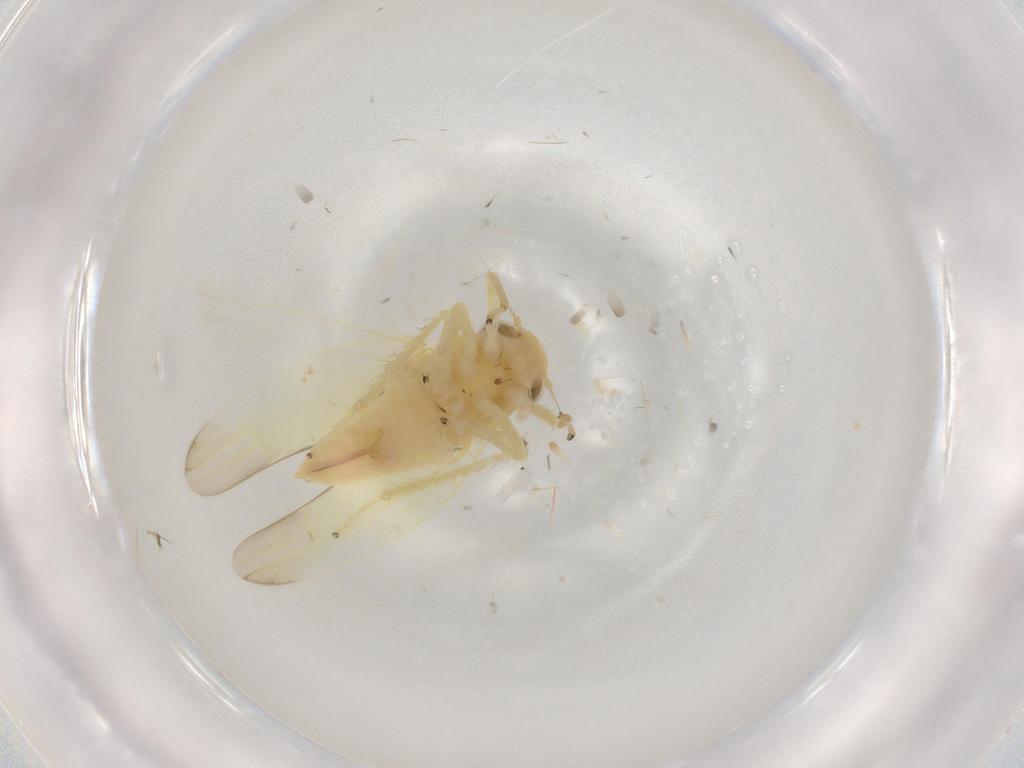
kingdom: Animalia
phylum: Arthropoda
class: Insecta
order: Hemiptera
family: Cicadellidae
